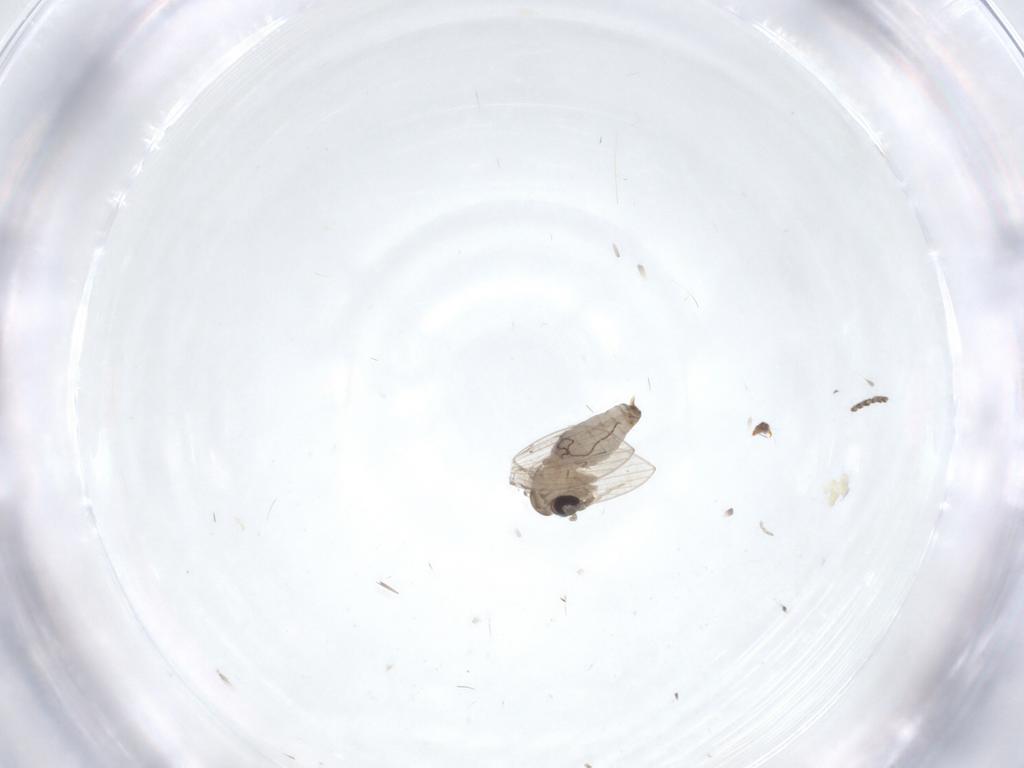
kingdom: Animalia
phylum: Arthropoda
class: Insecta
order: Diptera
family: Psychodidae
